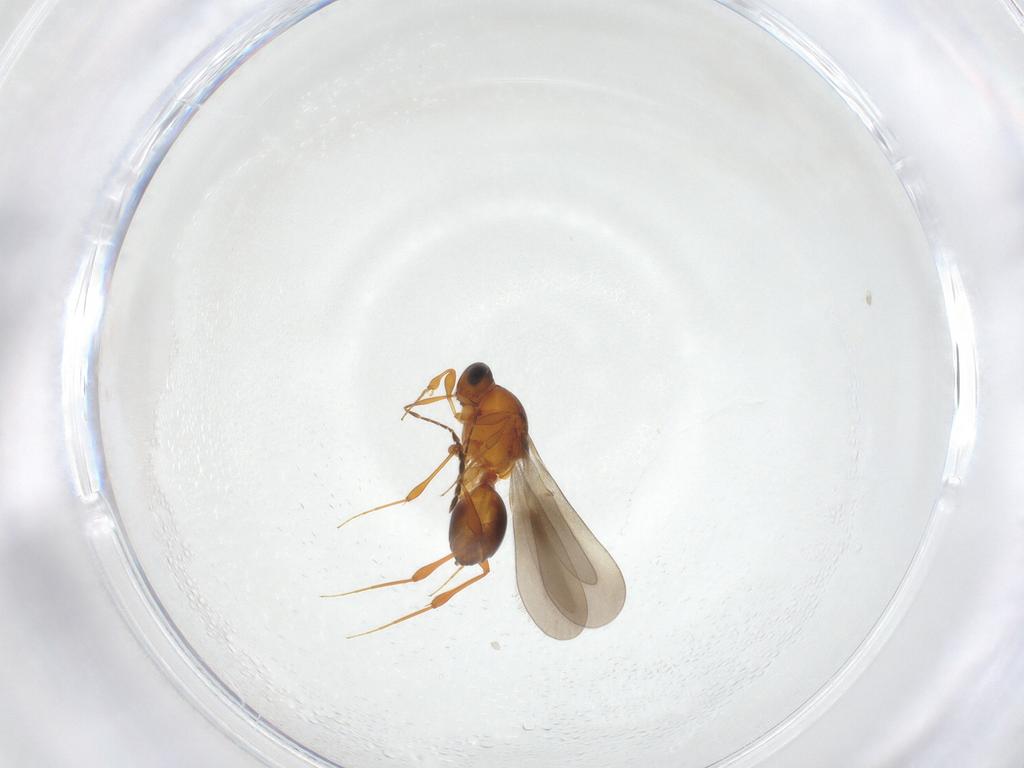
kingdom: Animalia
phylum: Arthropoda
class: Insecta
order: Hymenoptera
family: Platygastridae
